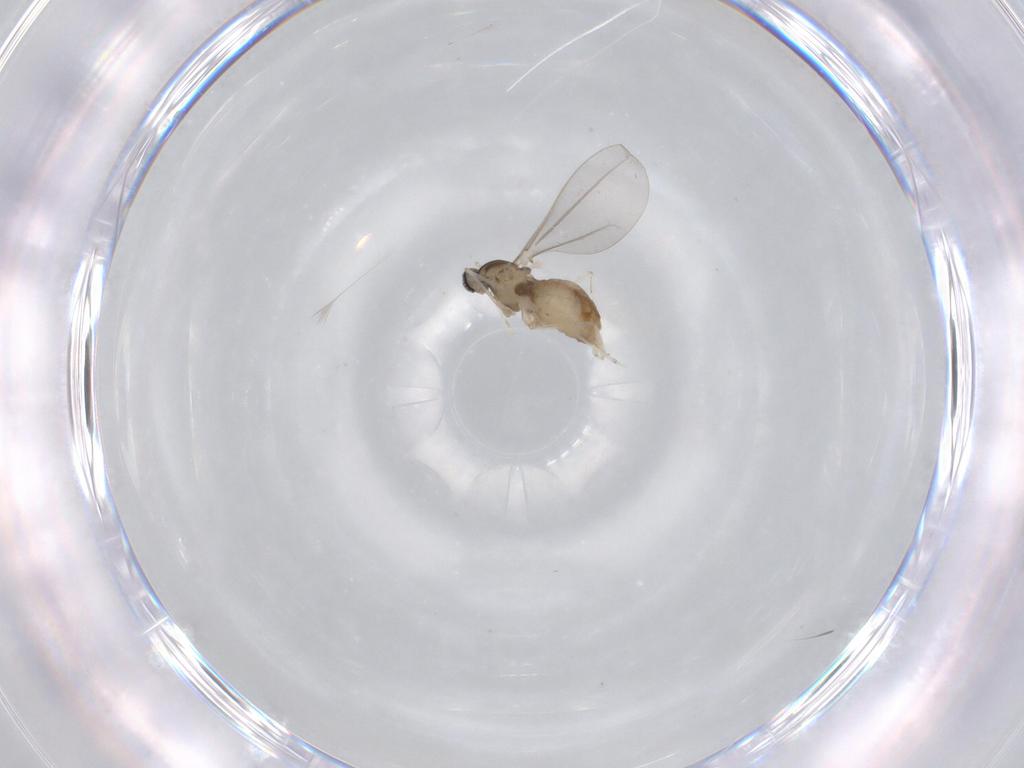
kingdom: Animalia
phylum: Arthropoda
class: Insecta
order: Diptera
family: Cecidomyiidae
